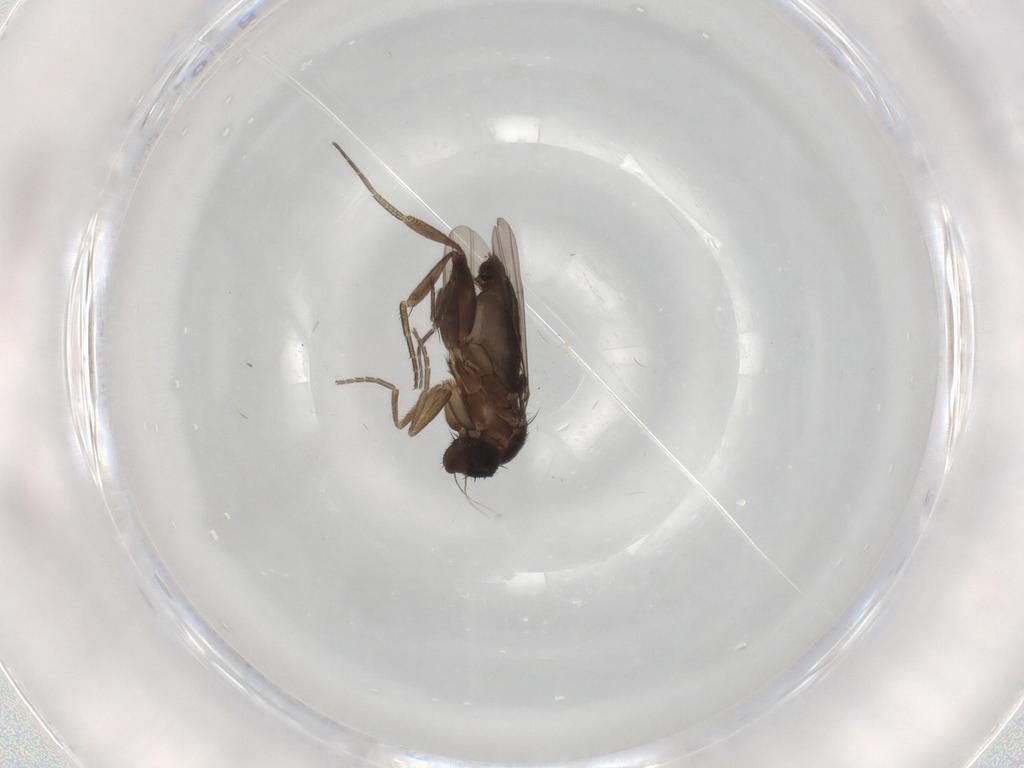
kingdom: Animalia
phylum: Arthropoda
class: Insecta
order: Diptera
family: Phoridae
